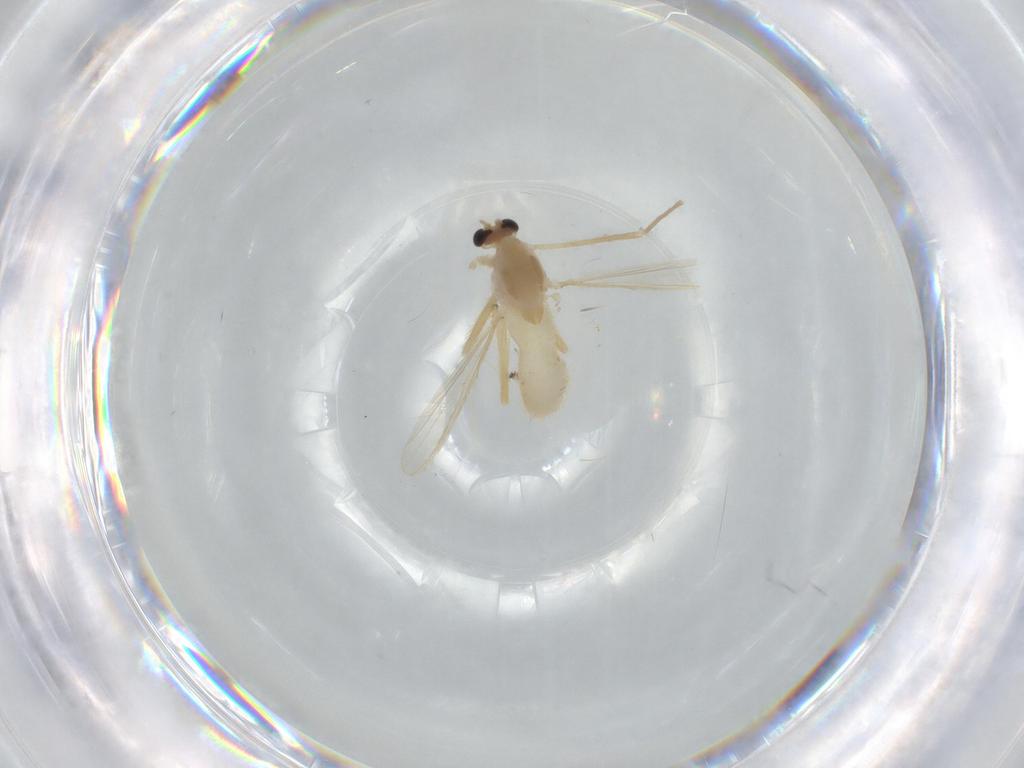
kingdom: Animalia
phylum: Arthropoda
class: Insecta
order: Diptera
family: Chironomidae
